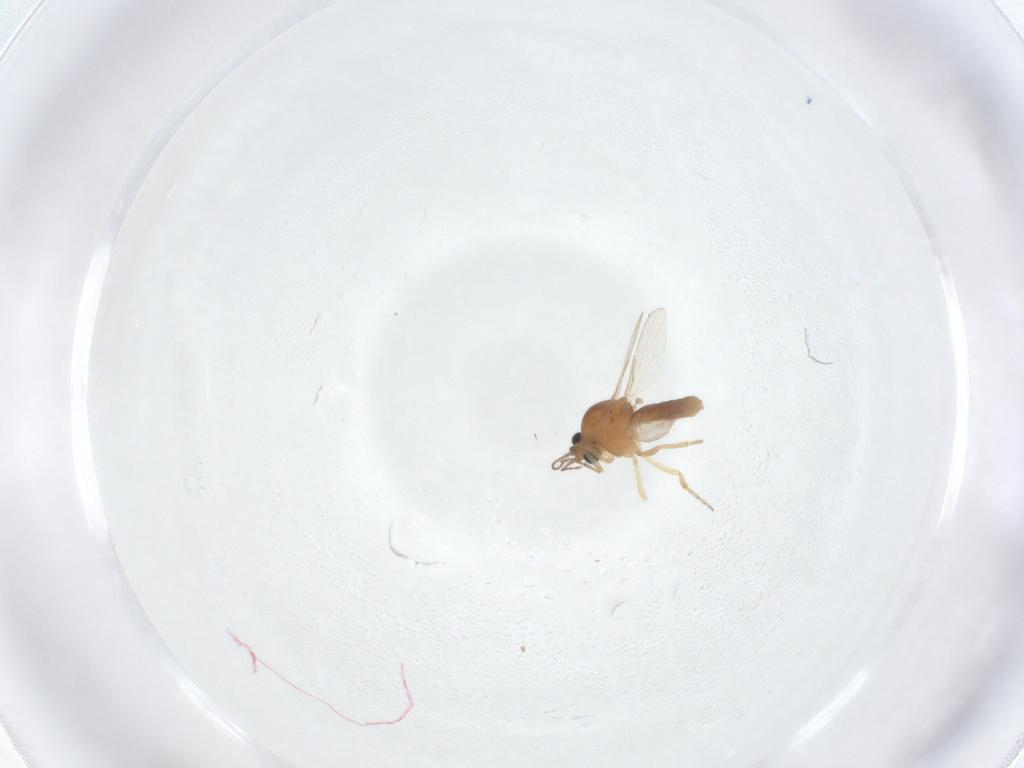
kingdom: Animalia
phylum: Arthropoda
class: Insecta
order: Diptera
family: Ceratopogonidae
